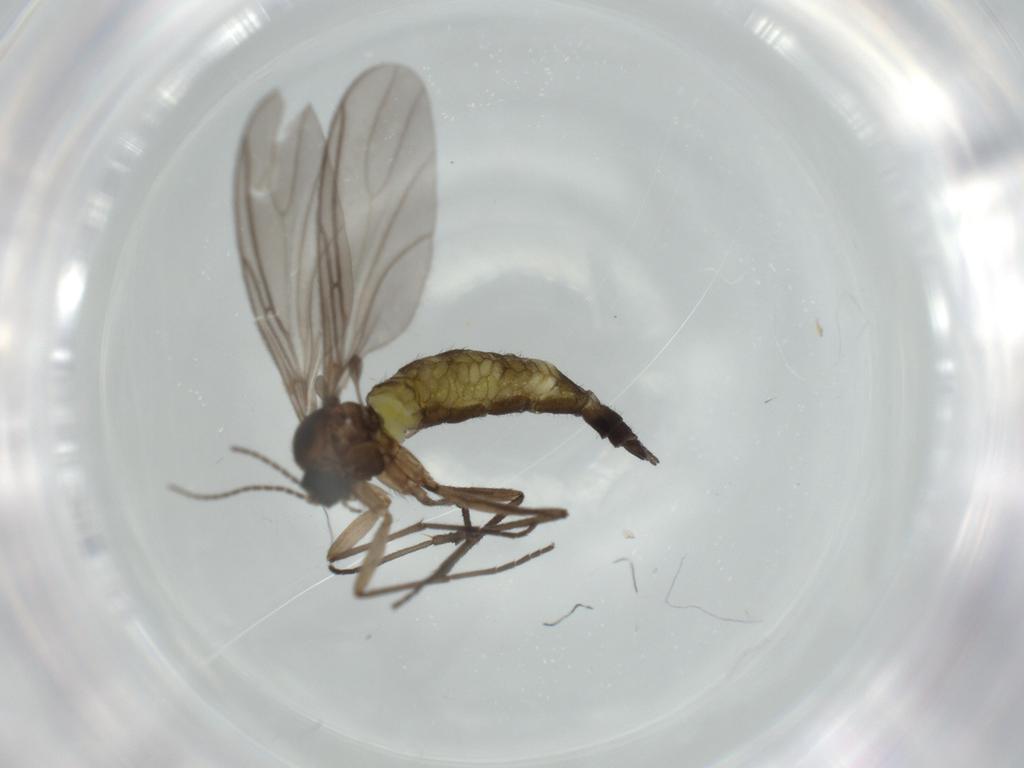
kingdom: Animalia
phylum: Arthropoda
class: Insecta
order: Diptera
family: Sciaridae
